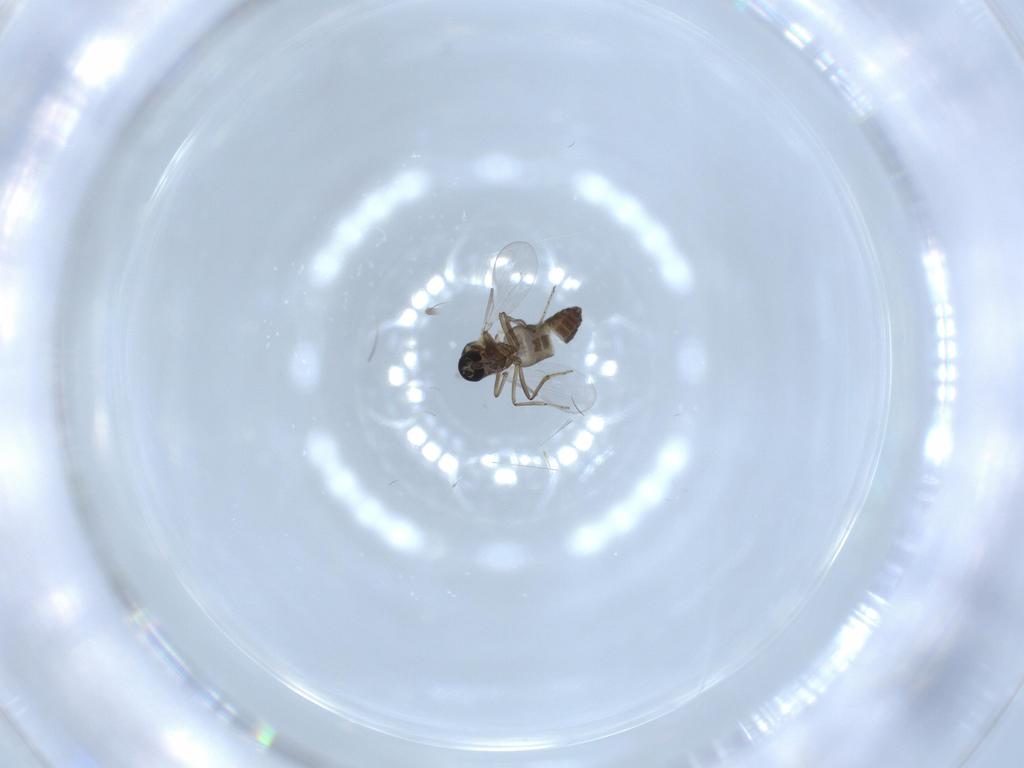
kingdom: Animalia
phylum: Arthropoda
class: Insecta
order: Diptera
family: Ceratopogonidae
